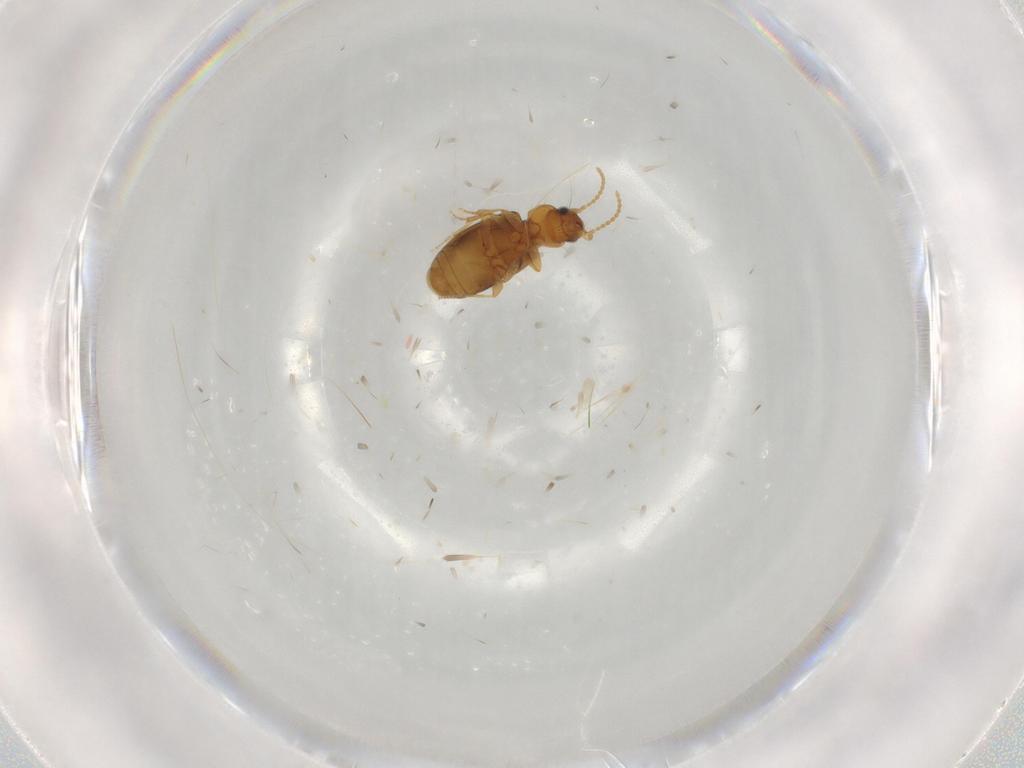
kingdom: Animalia
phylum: Arthropoda
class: Insecta
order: Coleoptera
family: Carabidae
